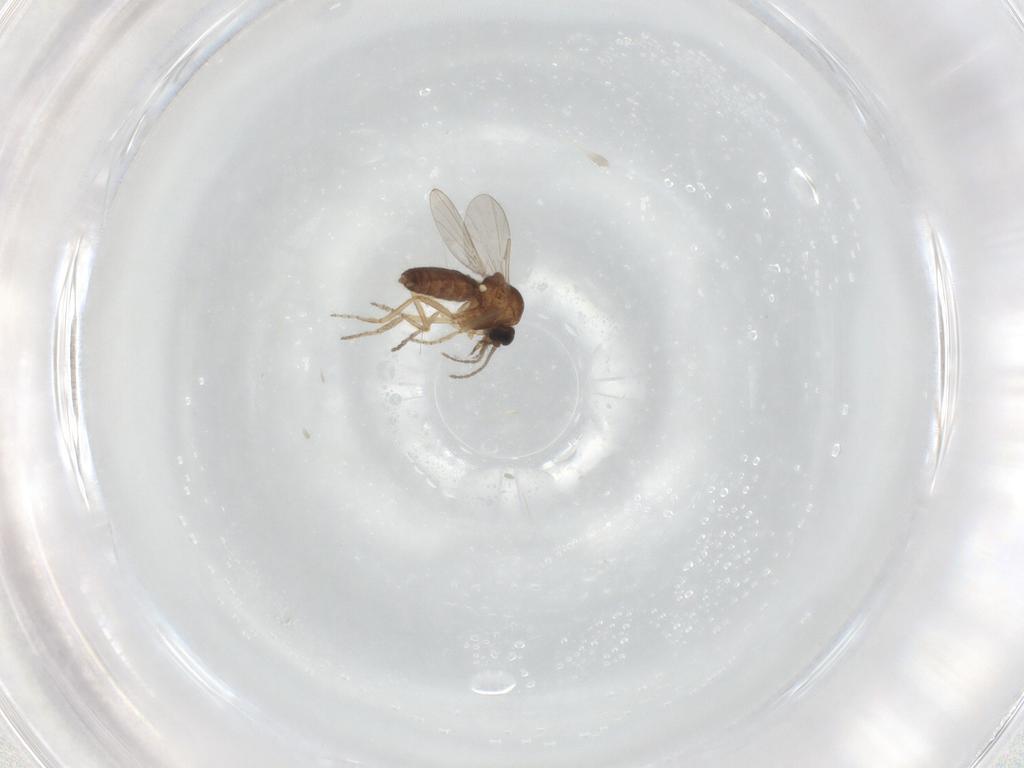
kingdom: Animalia
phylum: Arthropoda
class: Insecta
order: Diptera
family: Ceratopogonidae
